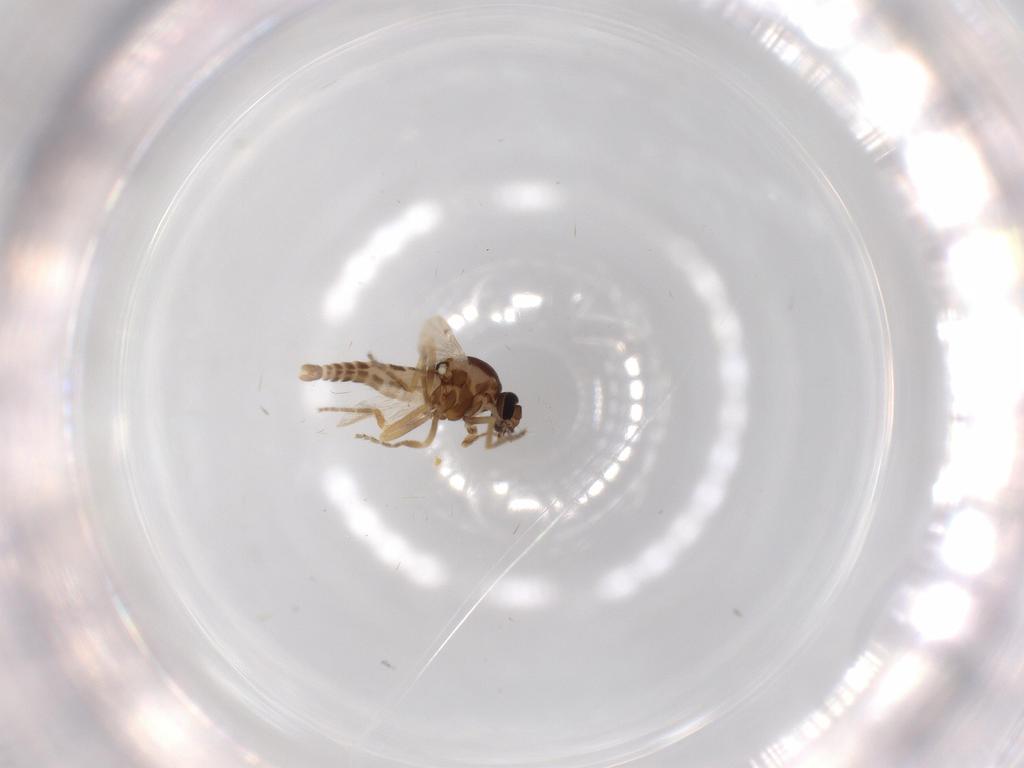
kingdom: Animalia
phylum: Arthropoda
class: Insecta
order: Diptera
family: Ceratopogonidae
